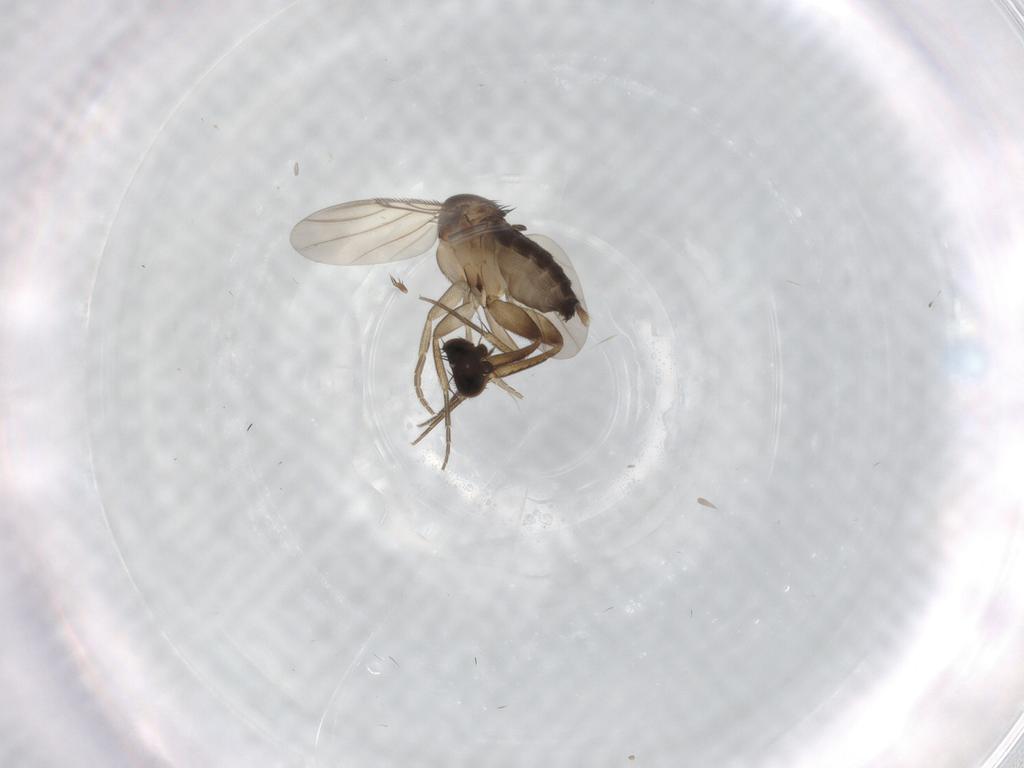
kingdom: Animalia
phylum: Arthropoda
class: Insecta
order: Diptera
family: Phoridae
